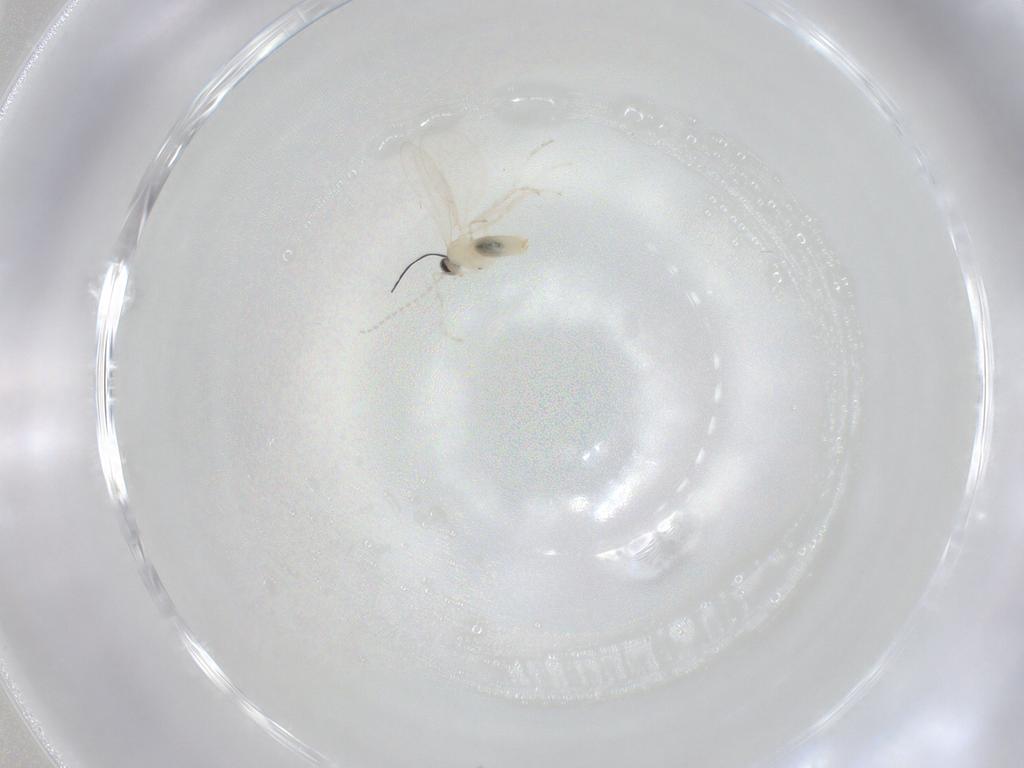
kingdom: Animalia
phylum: Arthropoda
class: Insecta
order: Diptera
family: Cecidomyiidae
